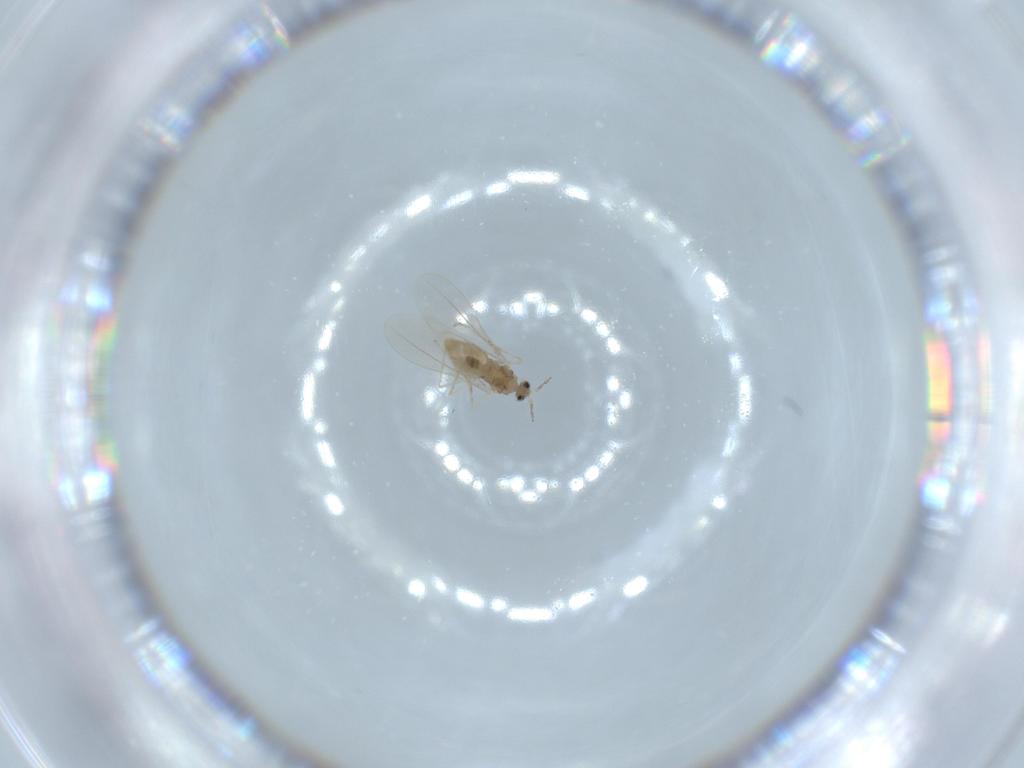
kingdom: Animalia
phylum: Arthropoda
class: Insecta
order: Diptera
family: Cecidomyiidae
